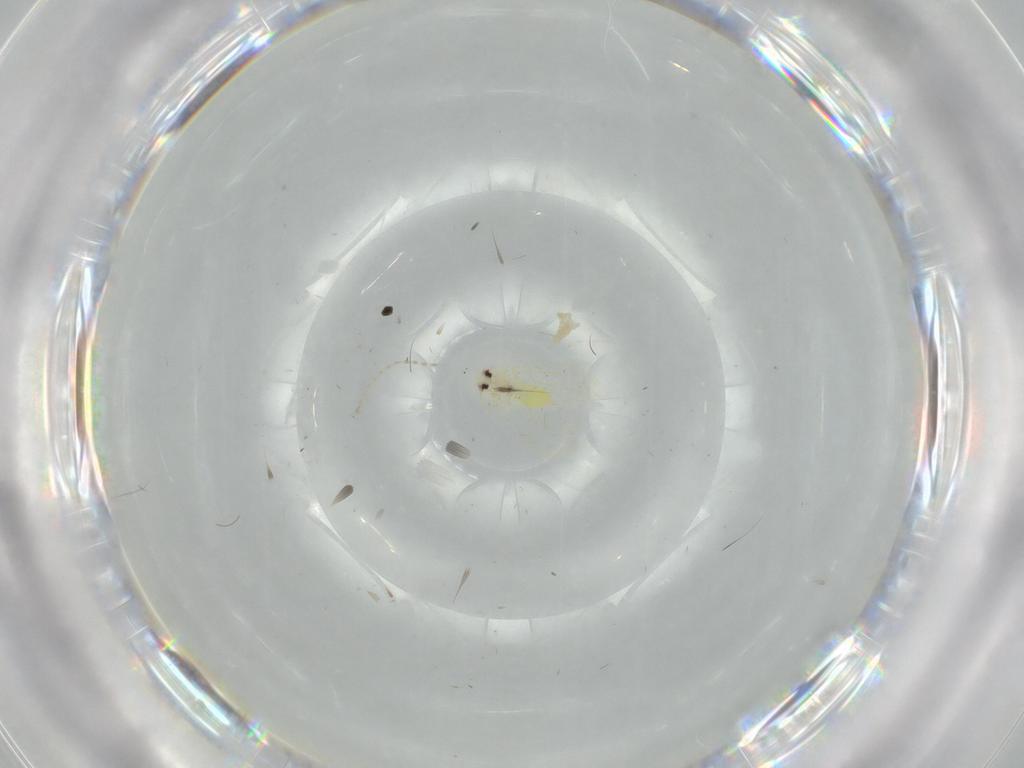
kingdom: Animalia
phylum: Arthropoda
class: Insecta
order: Hemiptera
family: Aleyrodidae
